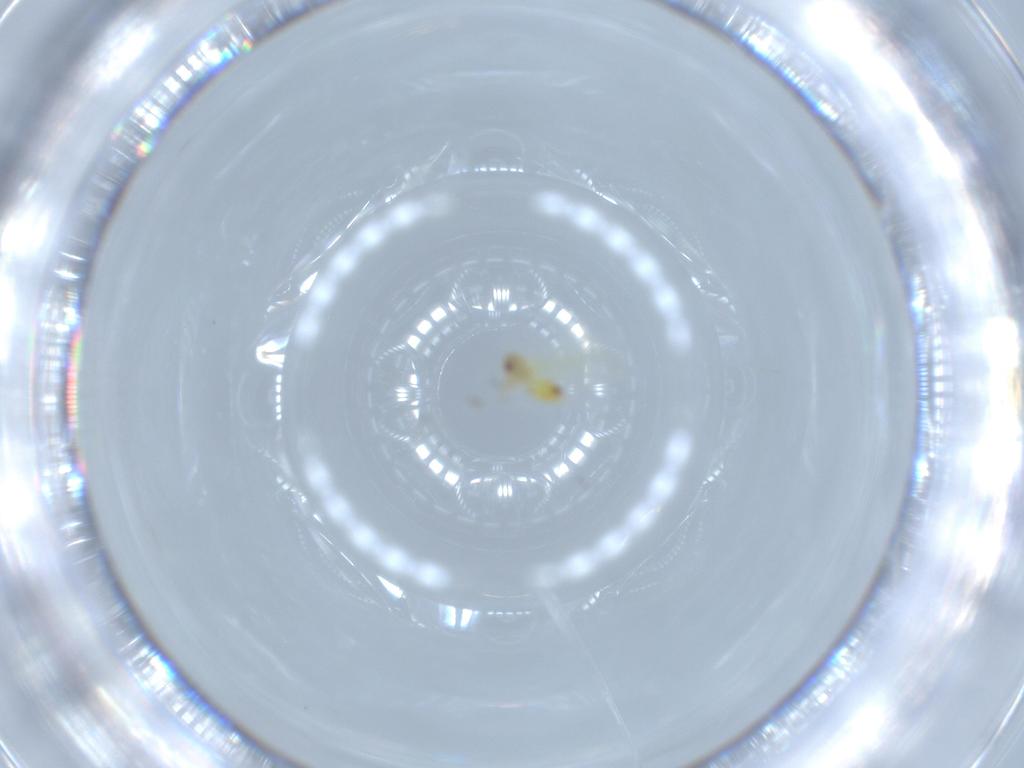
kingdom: Animalia
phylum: Arthropoda
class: Insecta
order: Hemiptera
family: Aleyrodidae
